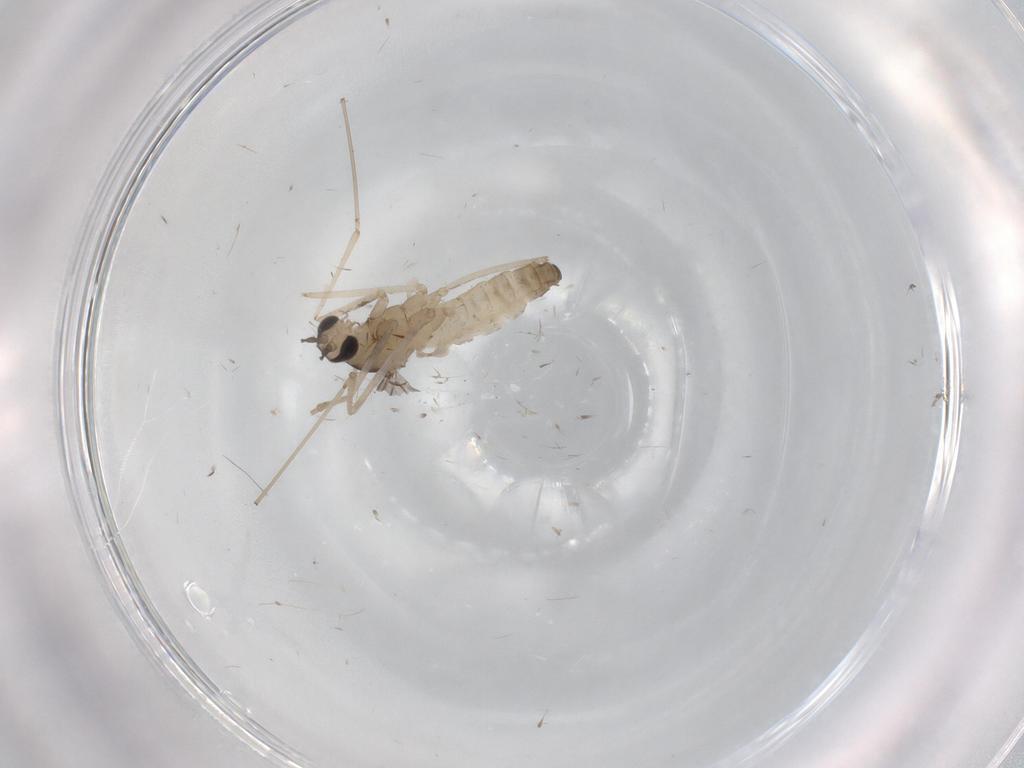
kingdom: Animalia
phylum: Arthropoda
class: Insecta
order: Diptera
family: Cecidomyiidae
